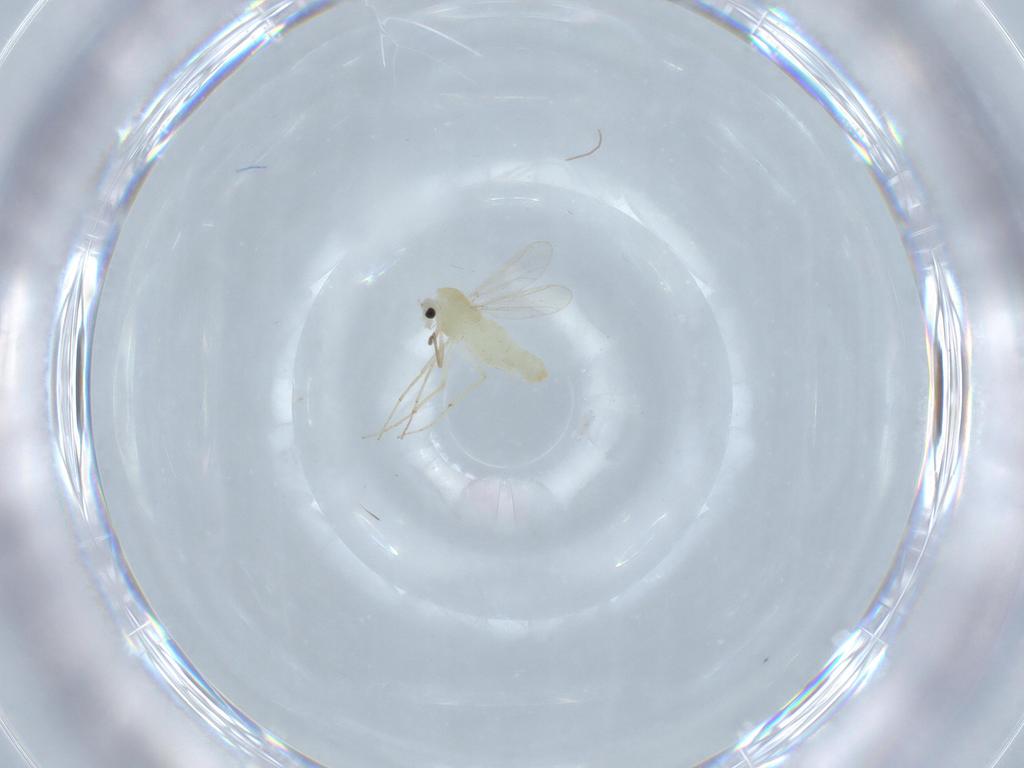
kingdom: Animalia
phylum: Arthropoda
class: Insecta
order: Diptera
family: Chironomidae
